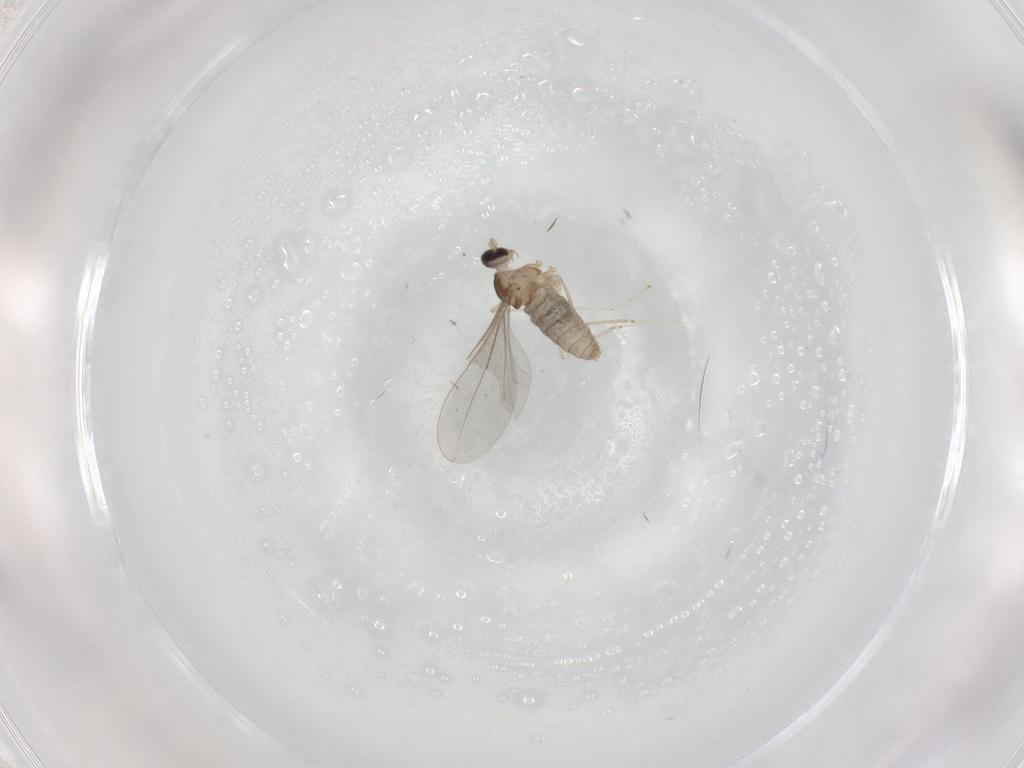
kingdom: Animalia
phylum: Arthropoda
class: Insecta
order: Diptera
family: Cecidomyiidae
